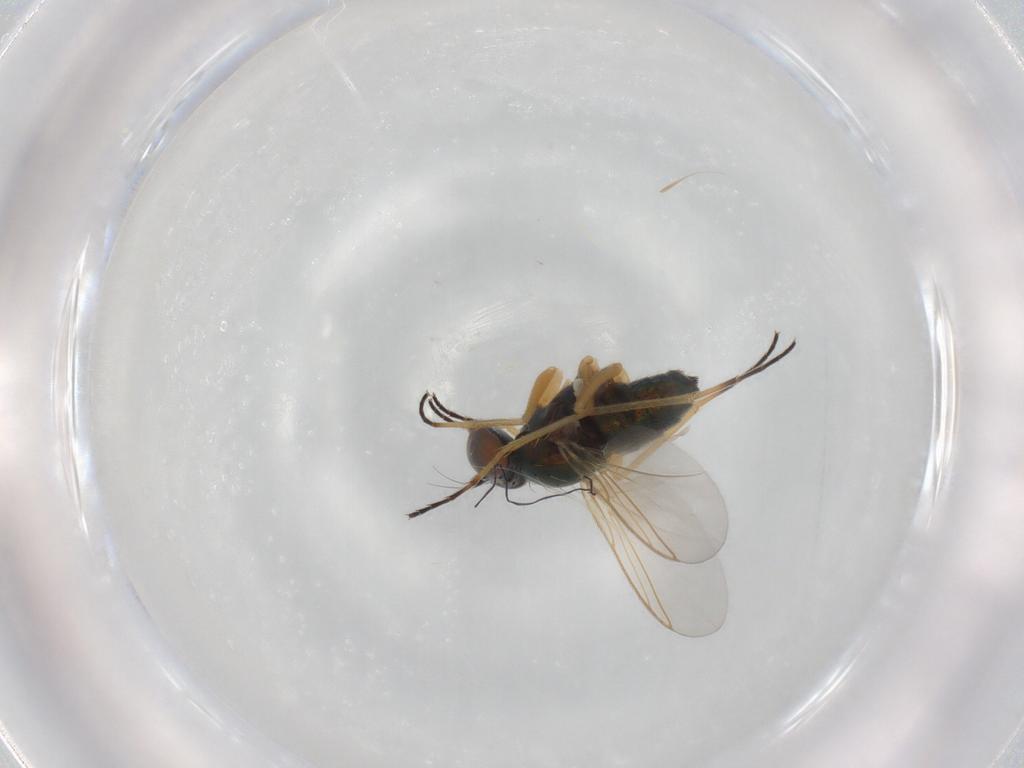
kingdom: Animalia
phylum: Arthropoda
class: Insecta
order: Diptera
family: Dolichopodidae
